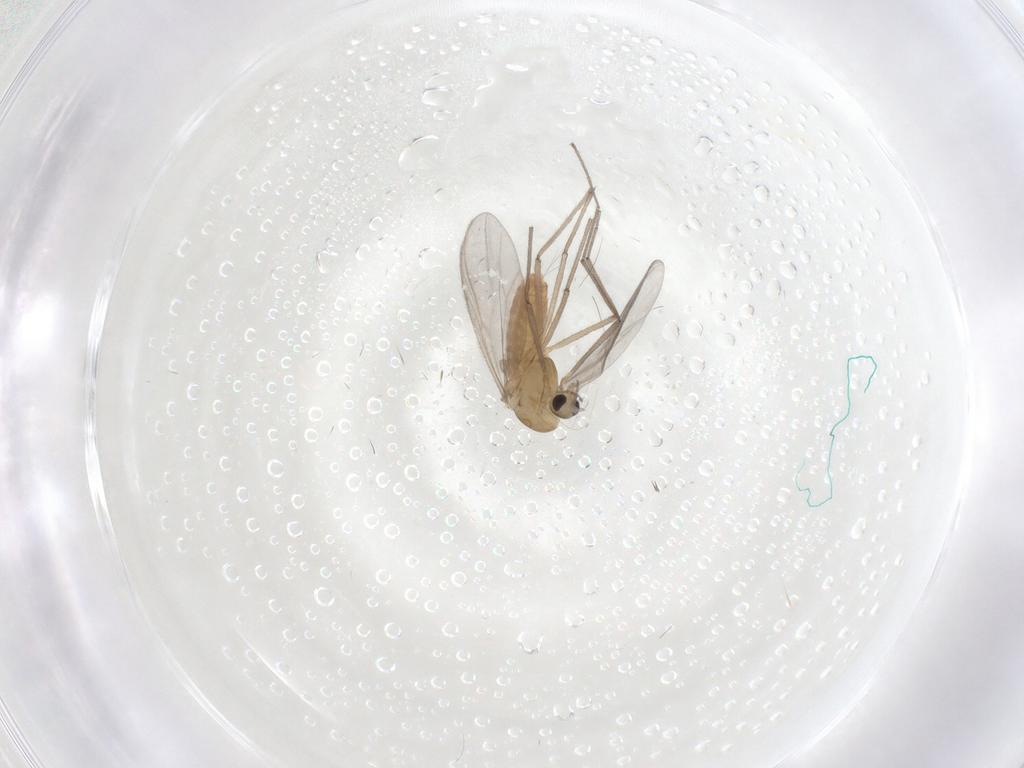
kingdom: Animalia
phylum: Arthropoda
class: Insecta
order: Diptera
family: Chironomidae
